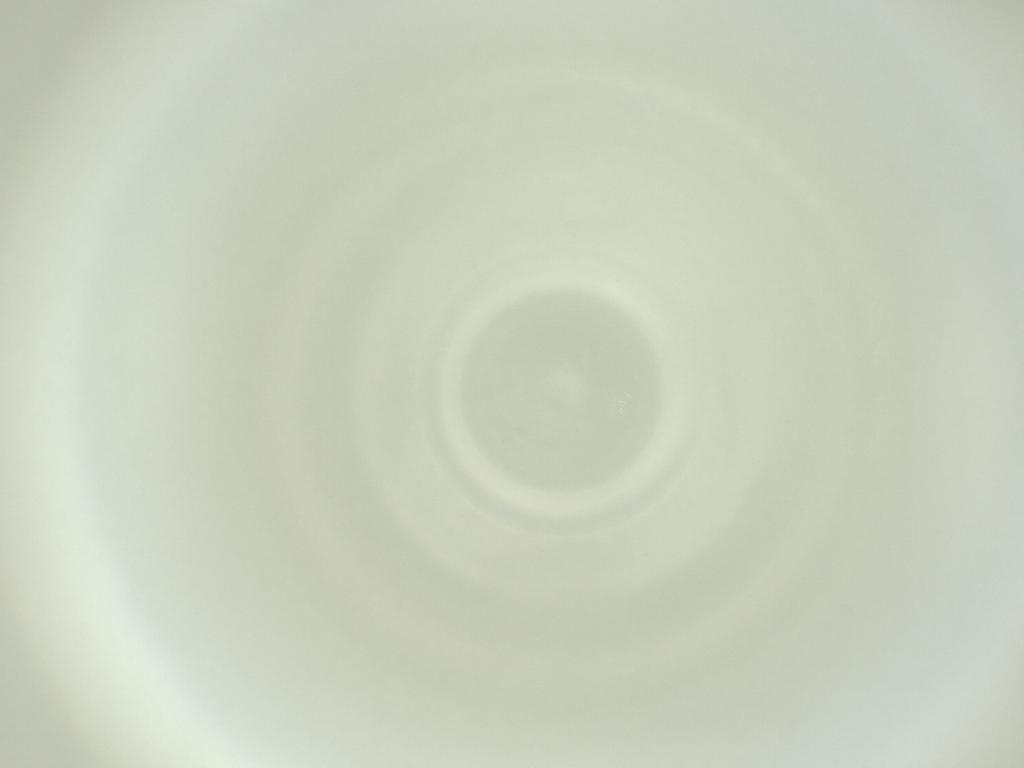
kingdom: Animalia
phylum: Arthropoda
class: Insecta
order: Diptera
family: Cecidomyiidae
